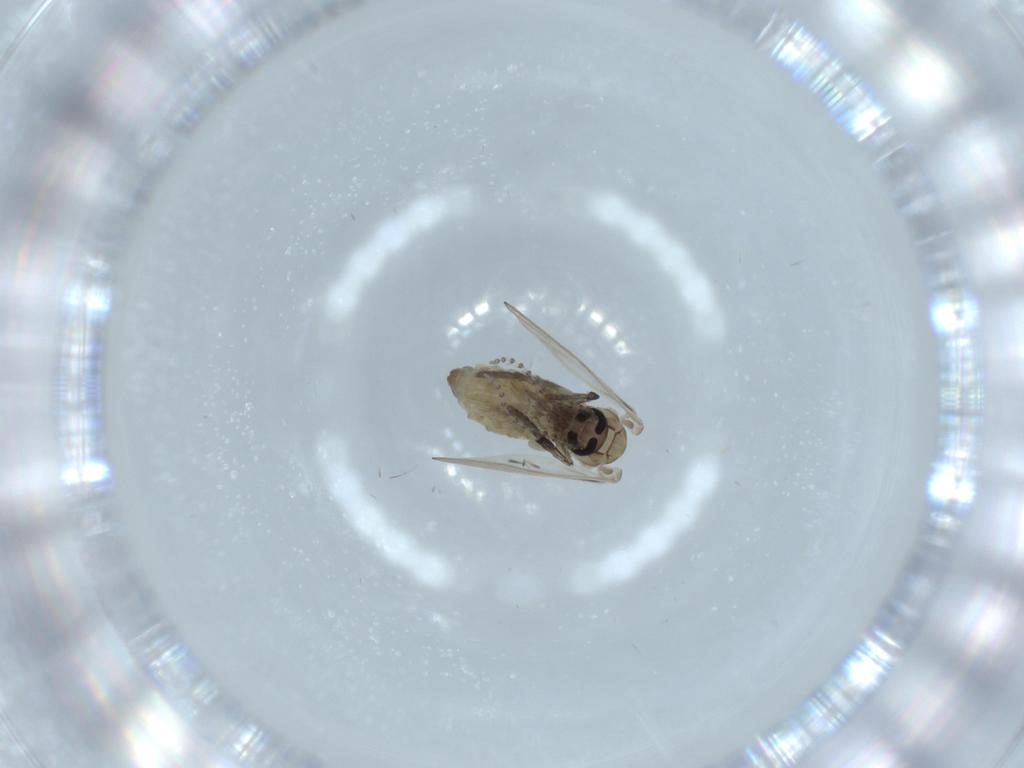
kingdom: Animalia
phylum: Arthropoda
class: Insecta
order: Diptera
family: Psychodidae
